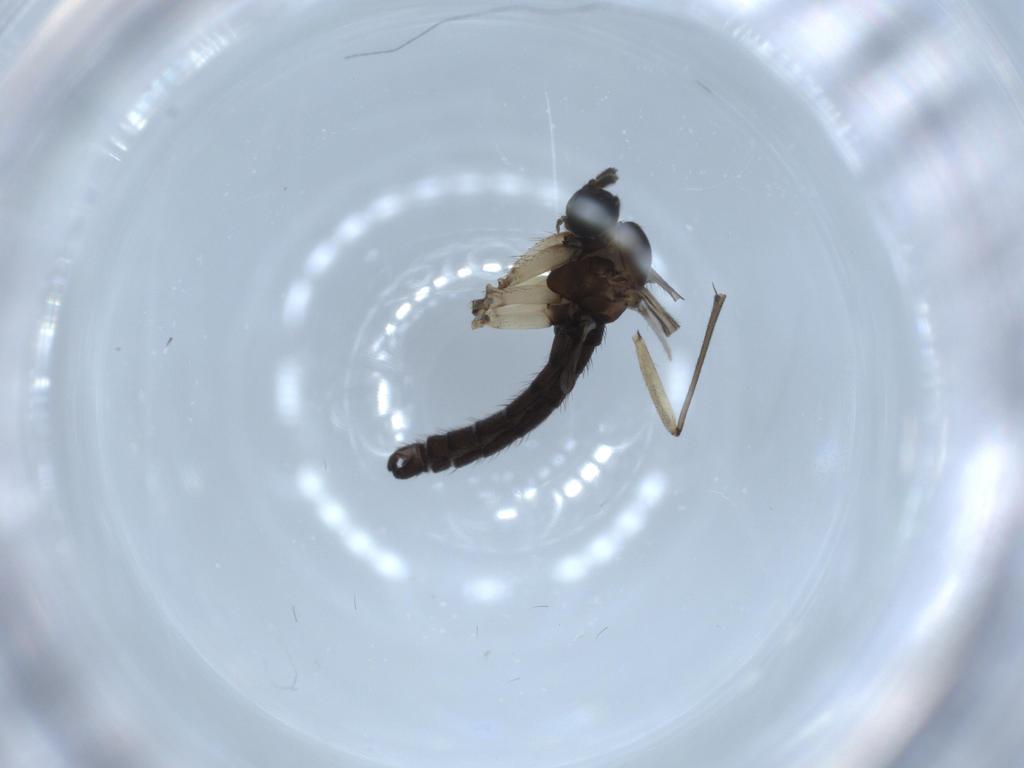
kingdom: Animalia
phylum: Arthropoda
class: Insecta
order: Diptera
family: Sciaridae
